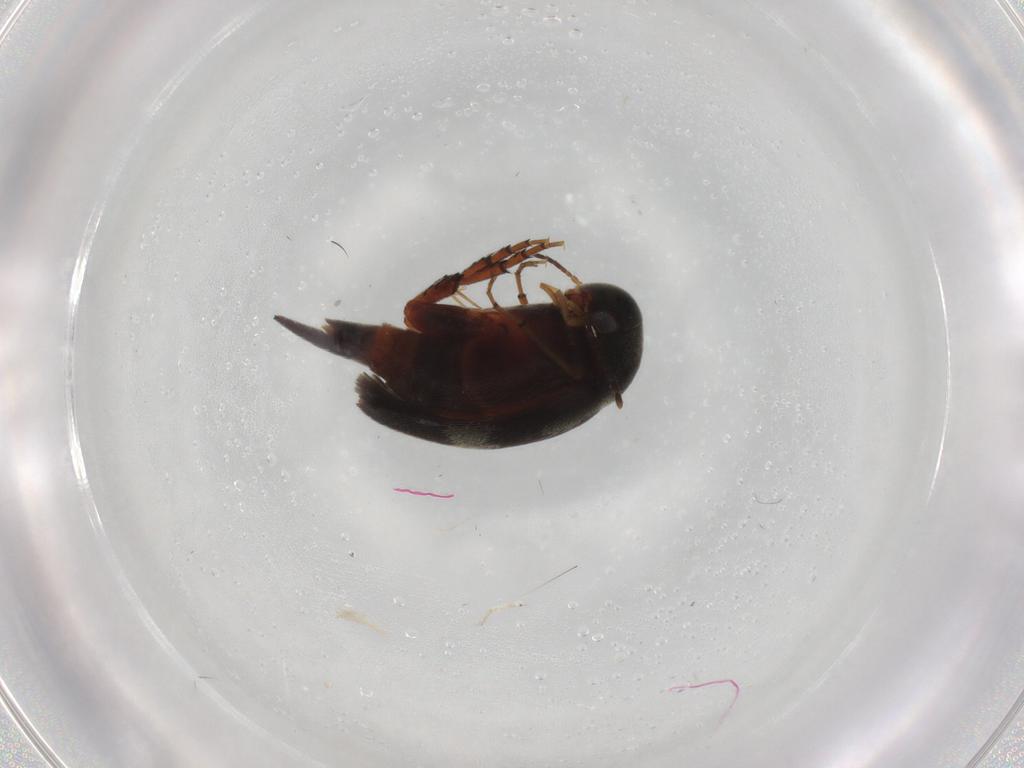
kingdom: Animalia
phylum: Arthropoda
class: Insecta
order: Coleoptera
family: Mordellidae
